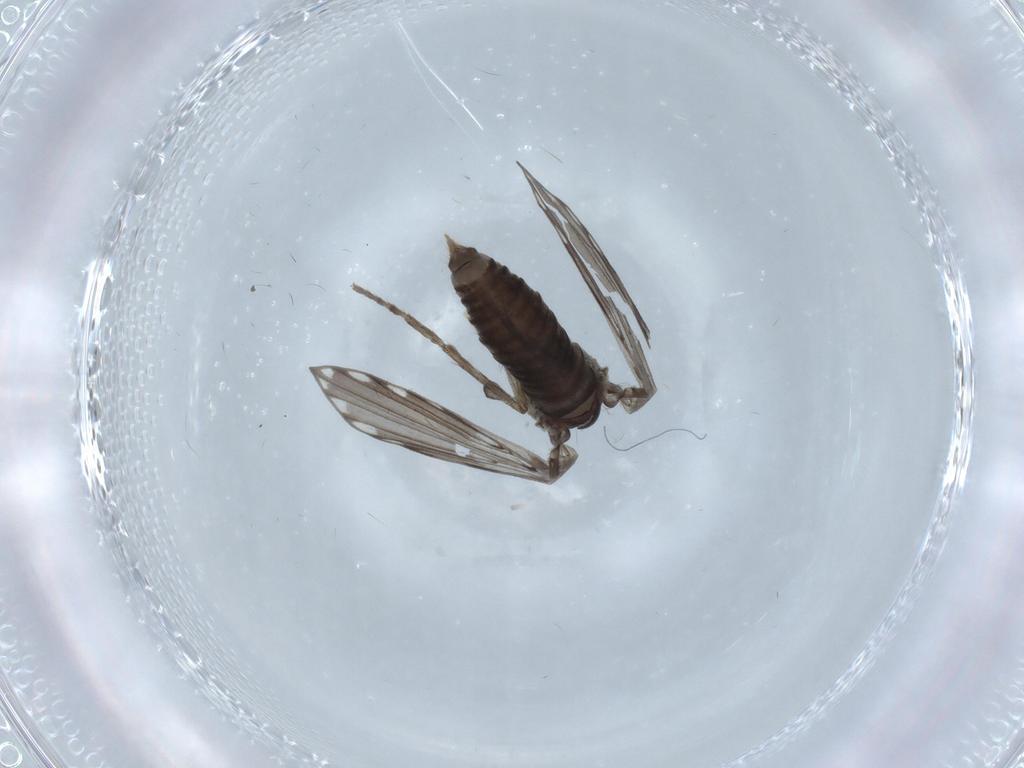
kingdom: Animalia
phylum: Arthropoda
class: Insecta
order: Diptera
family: Psychodidae
